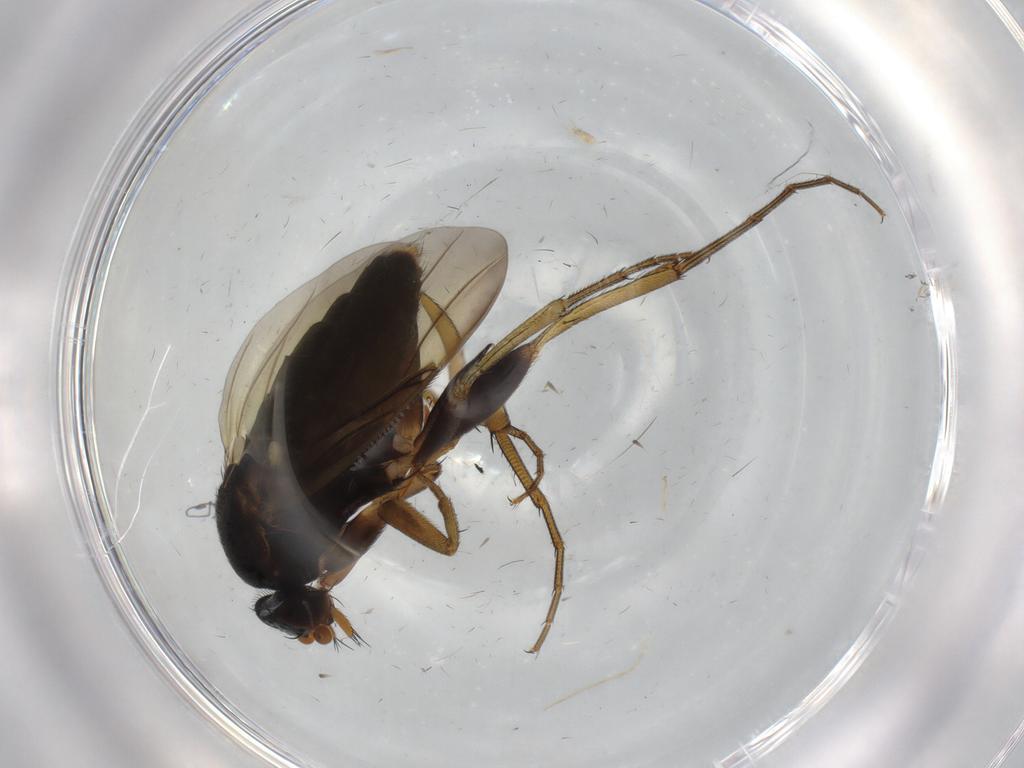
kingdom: Animalia
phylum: Arthropoda
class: Insecta
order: Diptera
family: Phoridae
